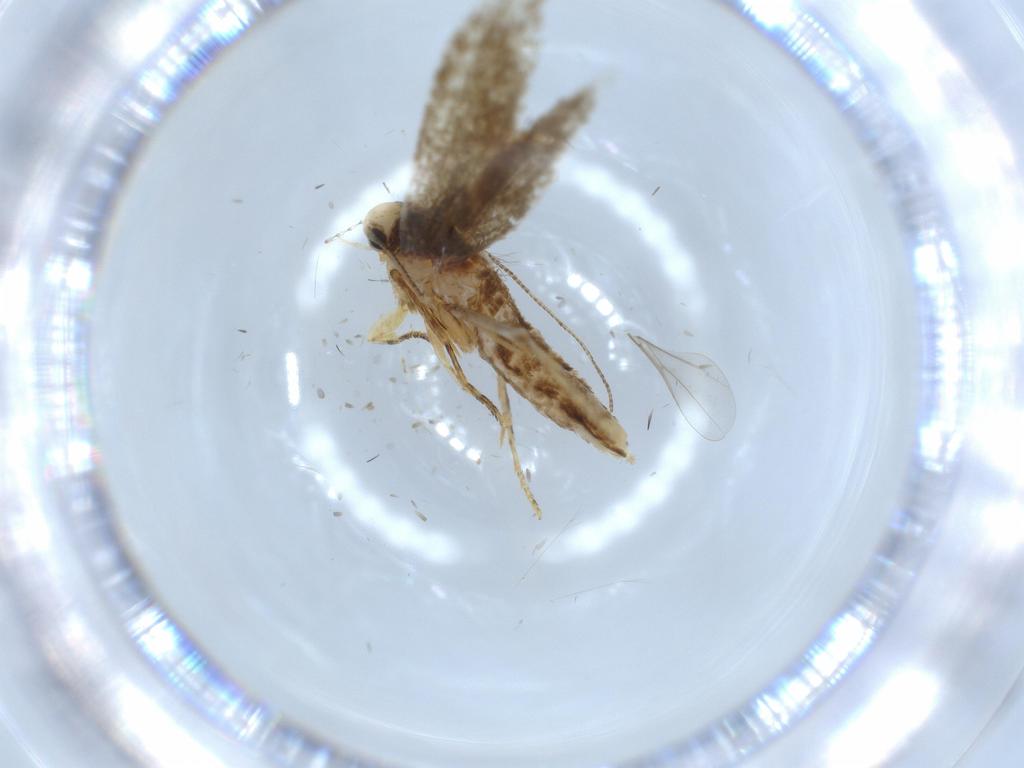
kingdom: Animalia
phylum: Arthropoda
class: Insecta
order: Lepidoptera
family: Tineidae
